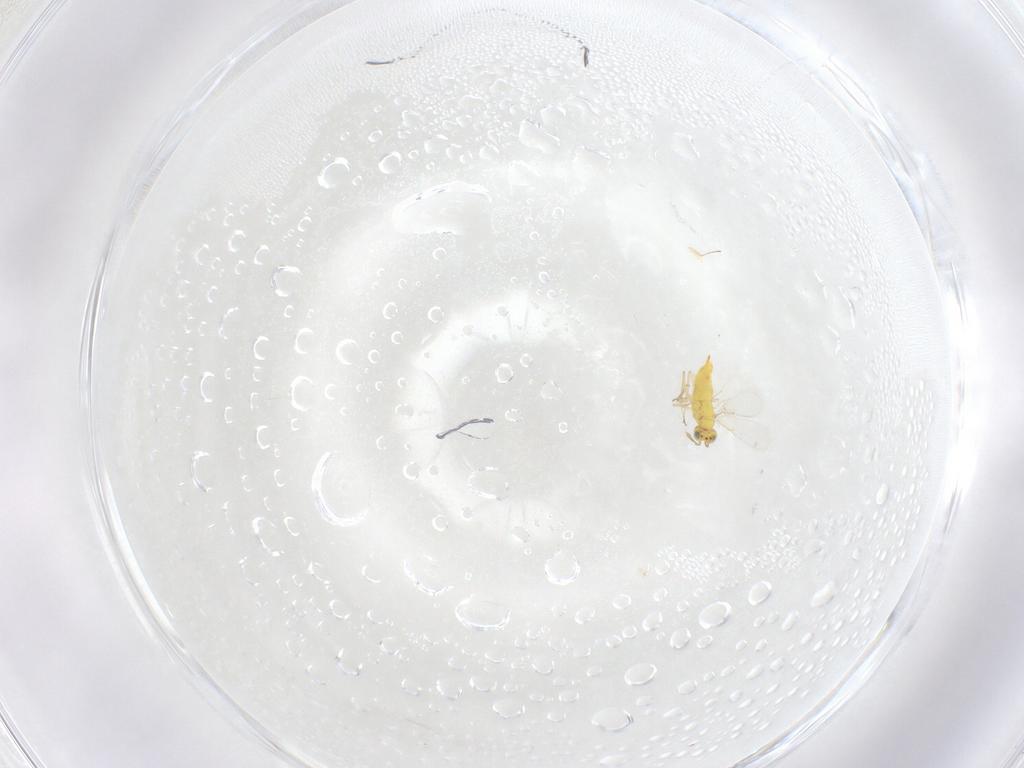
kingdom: Animalia
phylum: Arthropoda
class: Insecta
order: Hymenoptera
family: Aphelinidae
